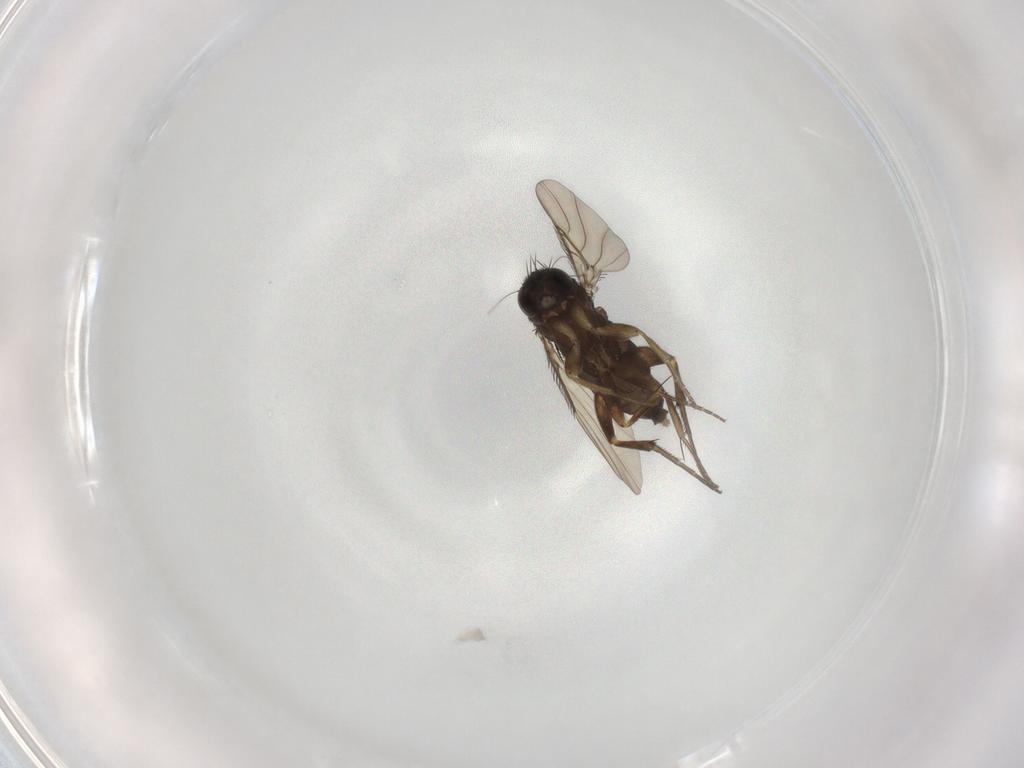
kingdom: Animalia
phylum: Arthropoda
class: Insecta
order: Diptera
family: Phoridae
